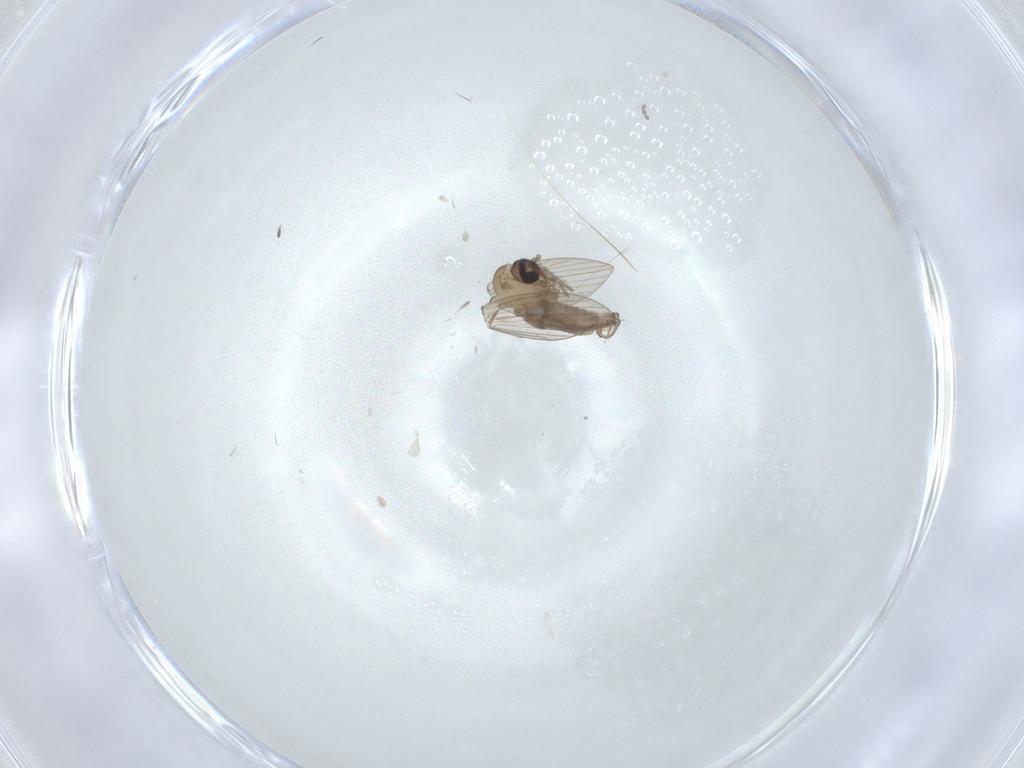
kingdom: Animalia
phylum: Arthropoda
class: Insecta
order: Diptera
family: Psychodidae
